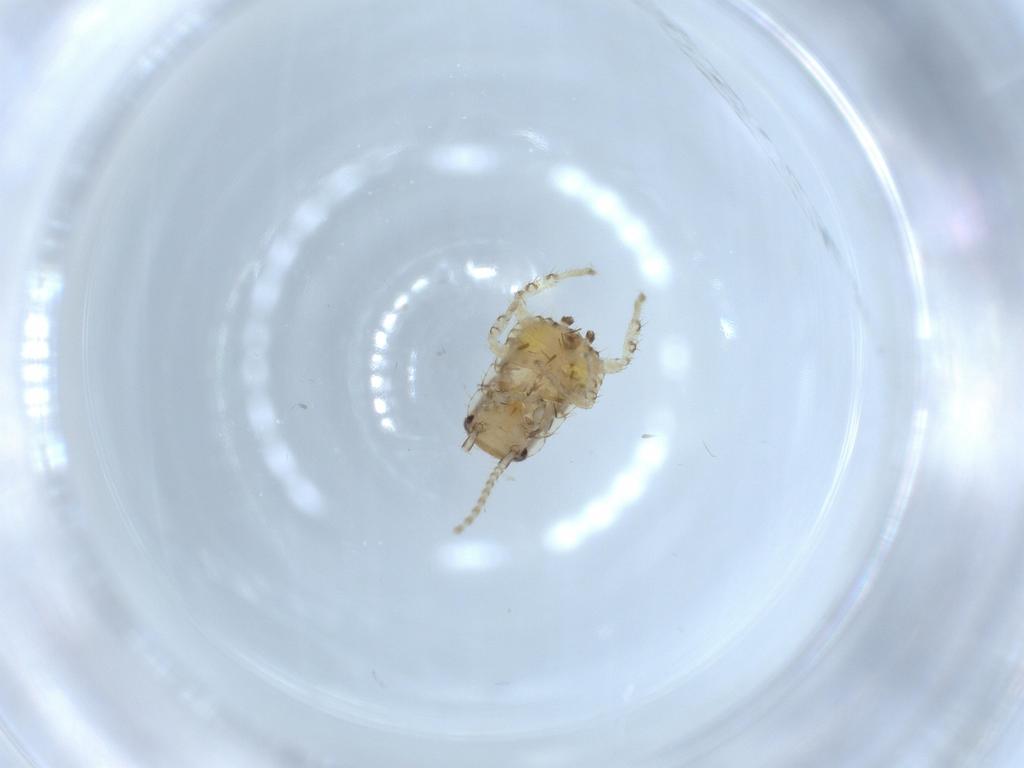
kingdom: Animalia
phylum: Arthropoda
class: Insecta
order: Blattodea
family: Ectobiidae
